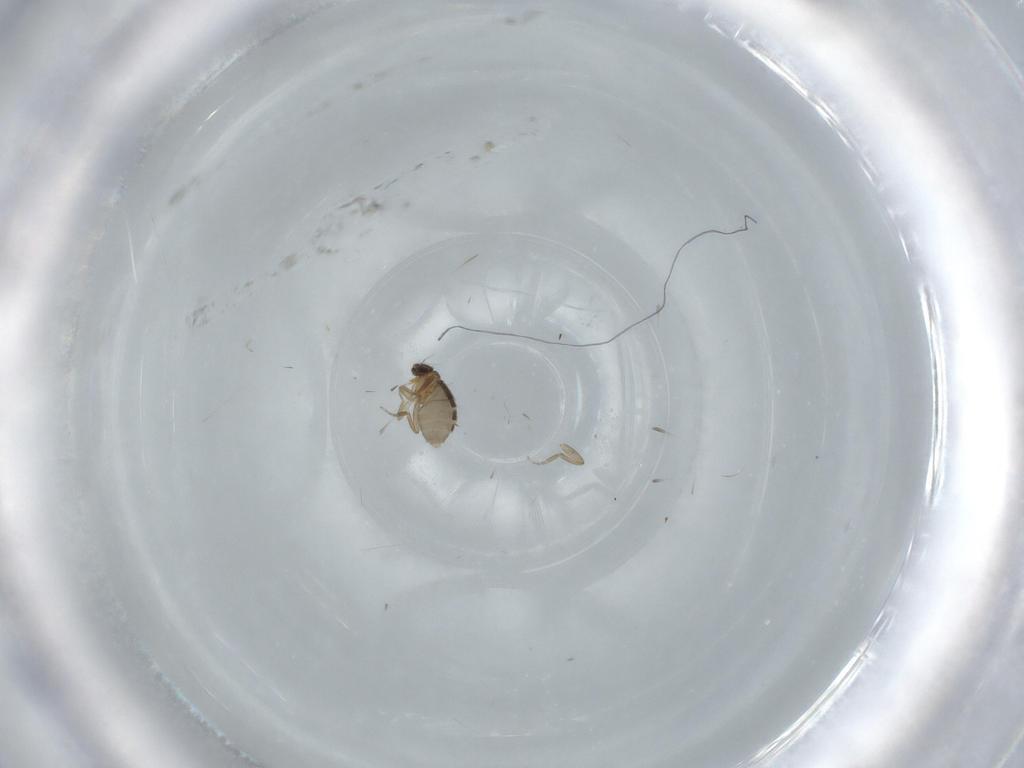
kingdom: Animalia
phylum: Arthropoda
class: Insecta
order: Diptera
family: Phoridae
